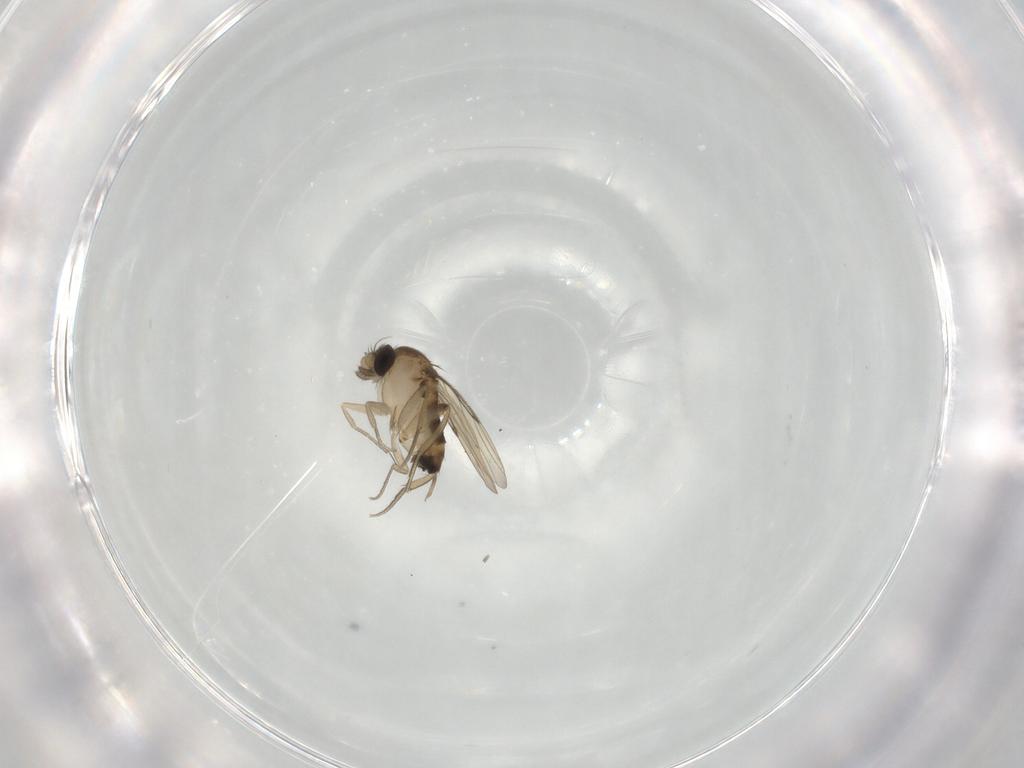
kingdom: Animalia
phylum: Arthropoda
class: Insecta
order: Diptera
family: Phoridae
